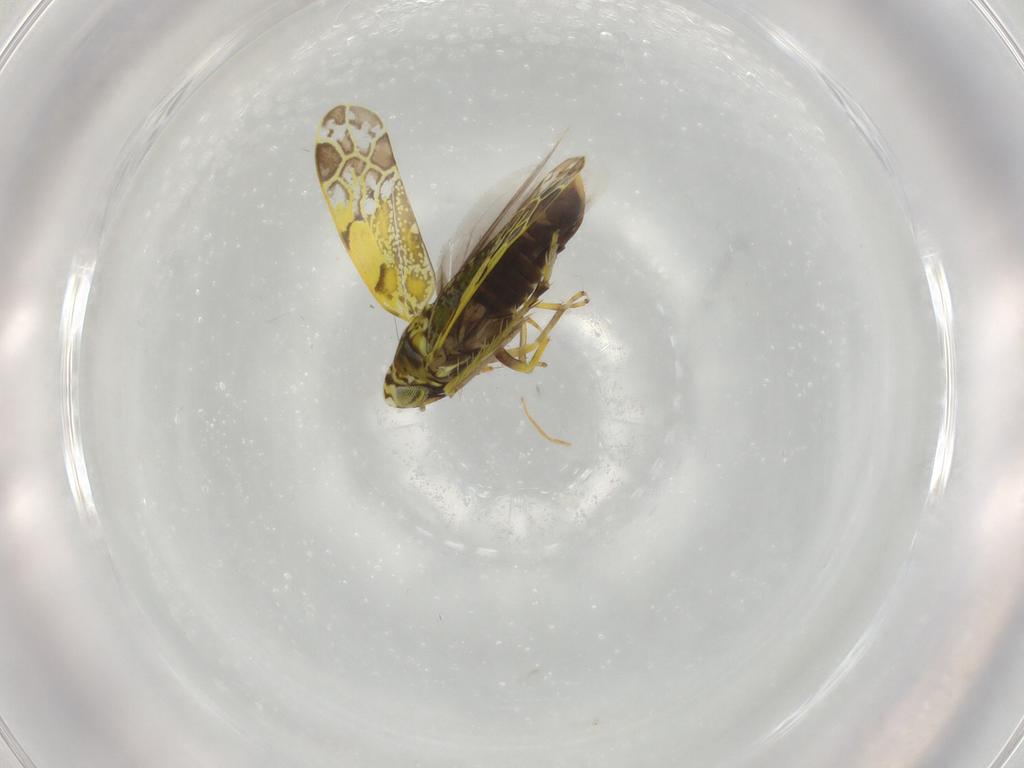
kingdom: Animalia
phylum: Arthropoda
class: Insecta
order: Hemiptera
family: Cicadellidae
